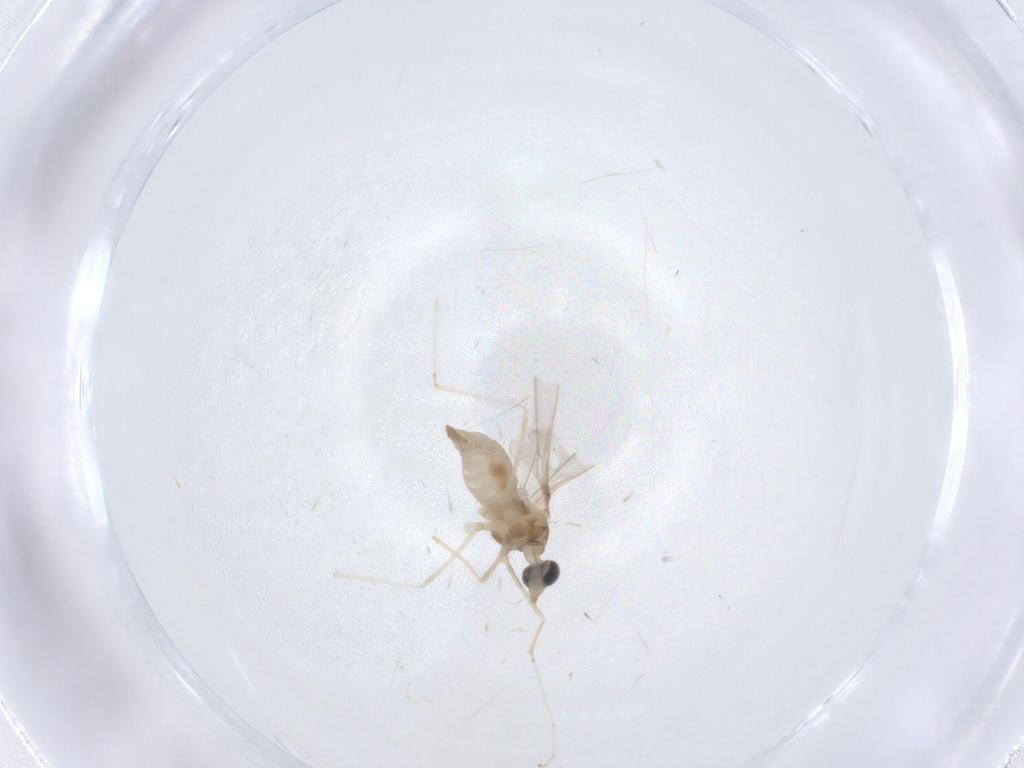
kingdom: Animalia
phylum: Arthropoda
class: Insecta
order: Diptera
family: Cecidomyiidae
